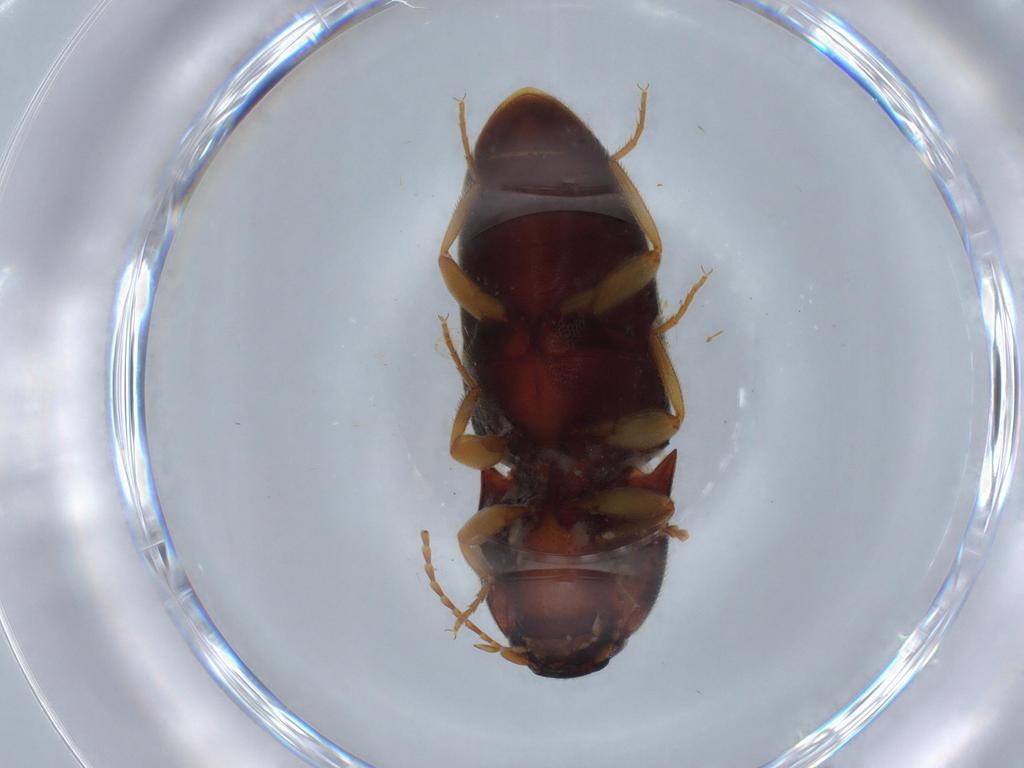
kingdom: Animalia
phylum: Arthropoda
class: Insecta
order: Coleoptera
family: Elateridae
